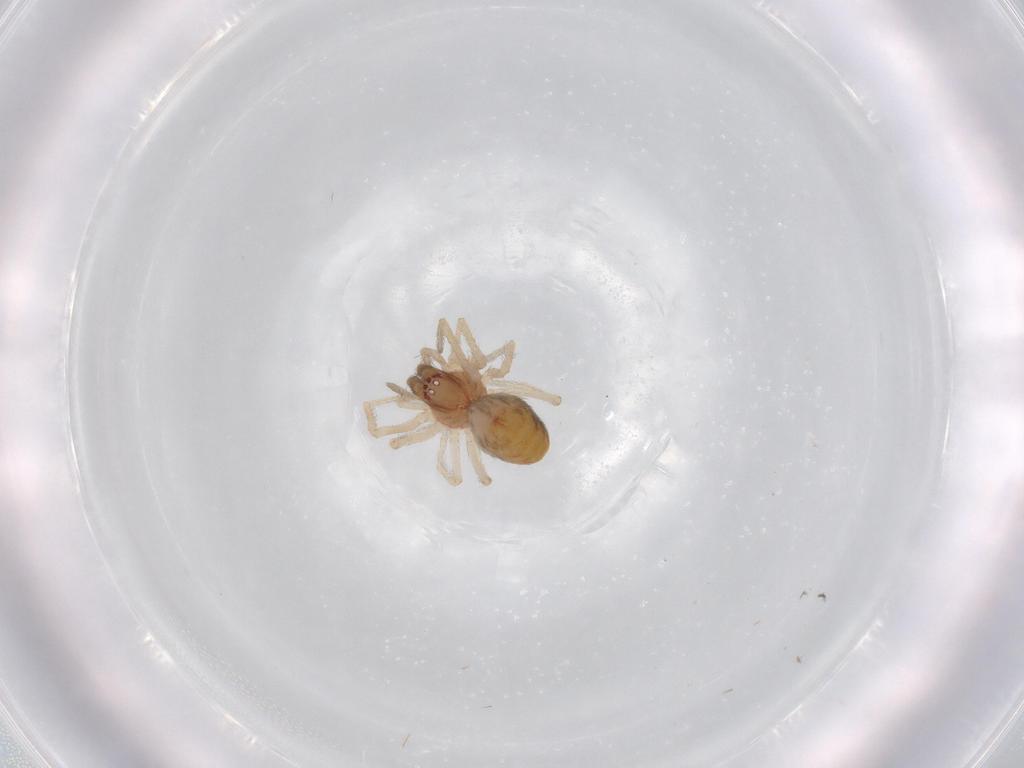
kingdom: Animalia
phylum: Arthropoda
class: Arachnida
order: Araneae
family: Dictynidae
